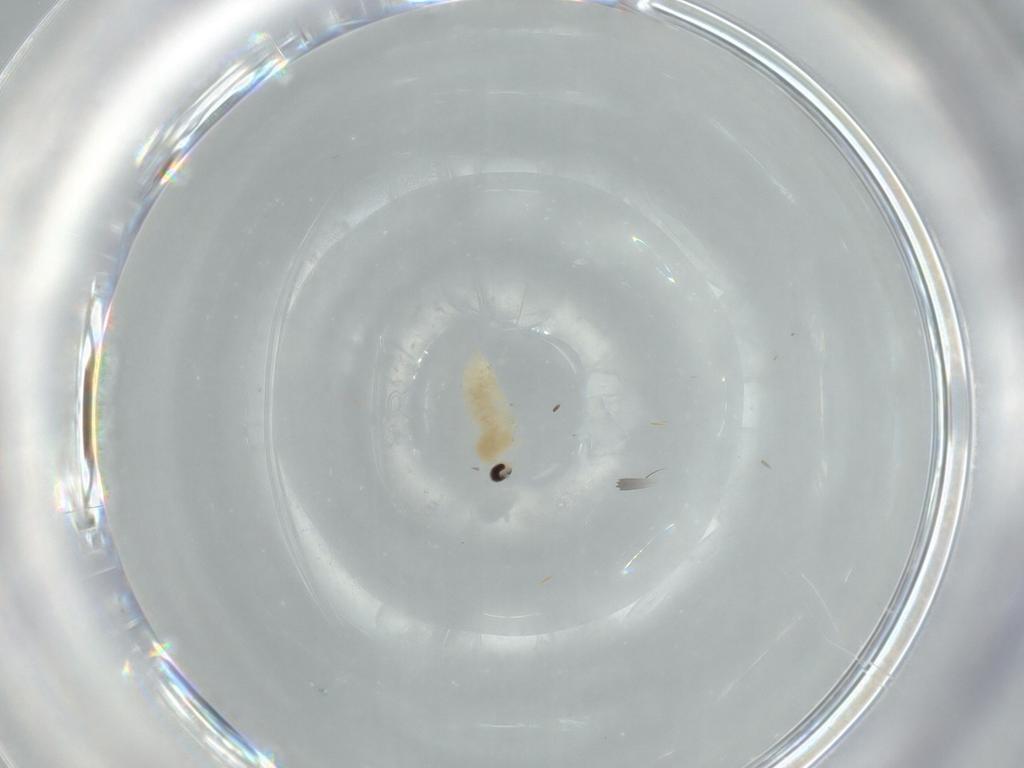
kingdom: Animalia
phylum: Arthropoda
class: Insecta
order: Diptera
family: Cecidomyiidae
